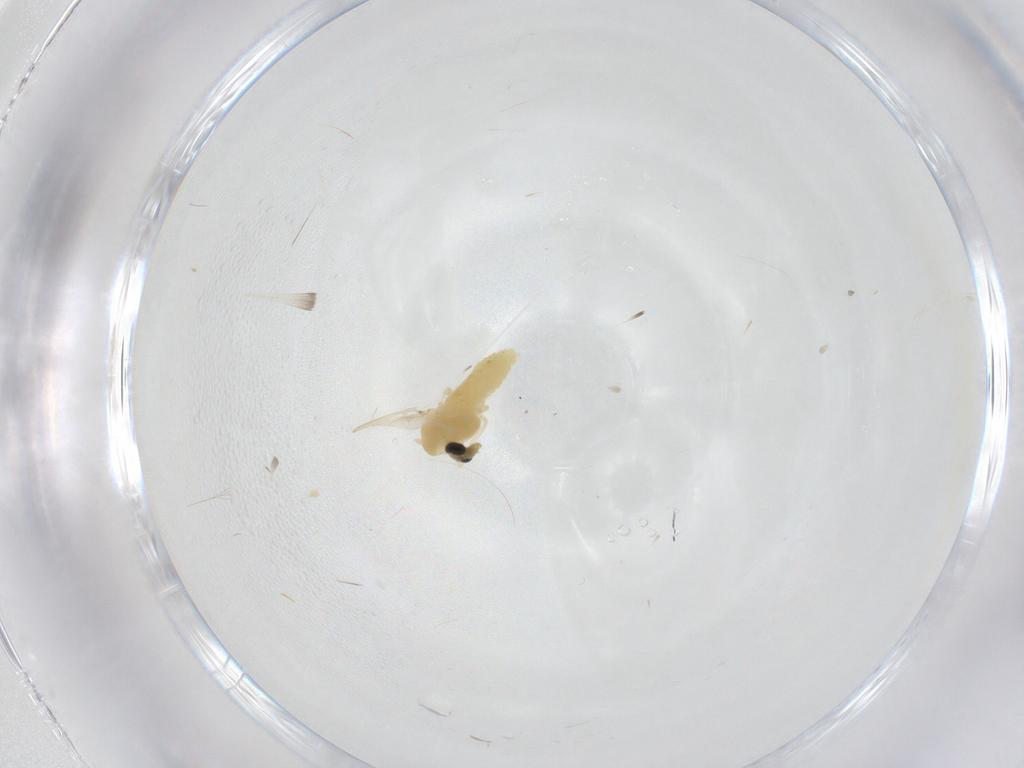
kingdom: Animalia
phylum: Arthropoda
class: Insecta
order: Diptera
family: Chironomidae
